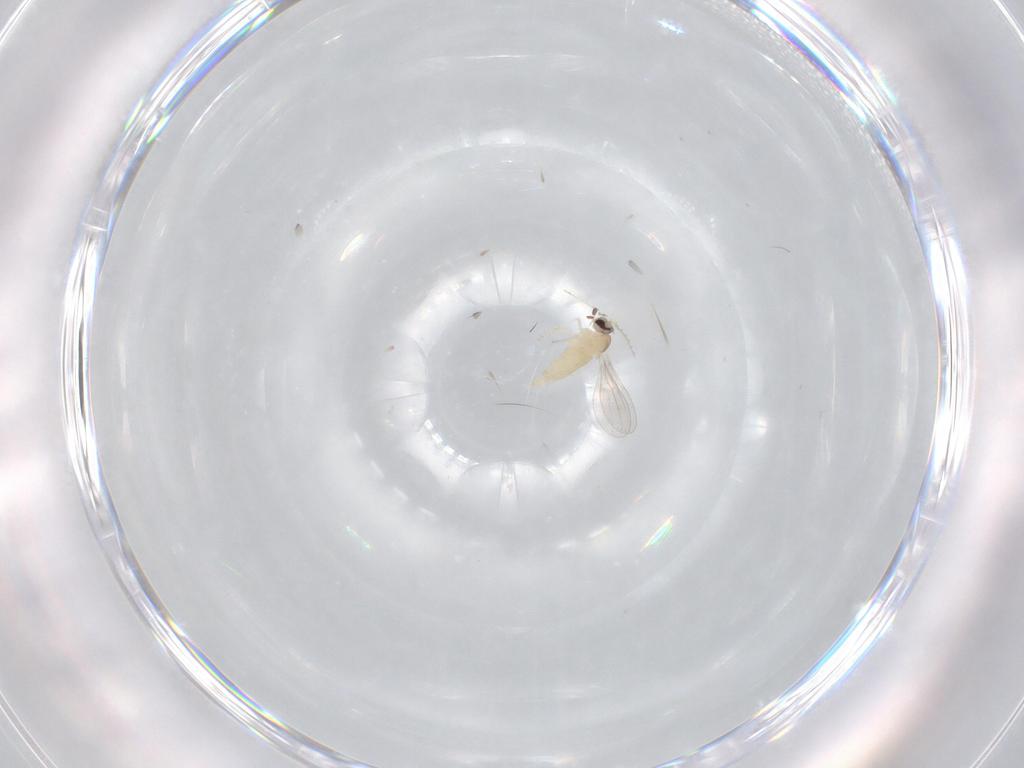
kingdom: Animalia
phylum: Arthropoda
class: Insecta
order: Diptera
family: Cecidomyiidae
